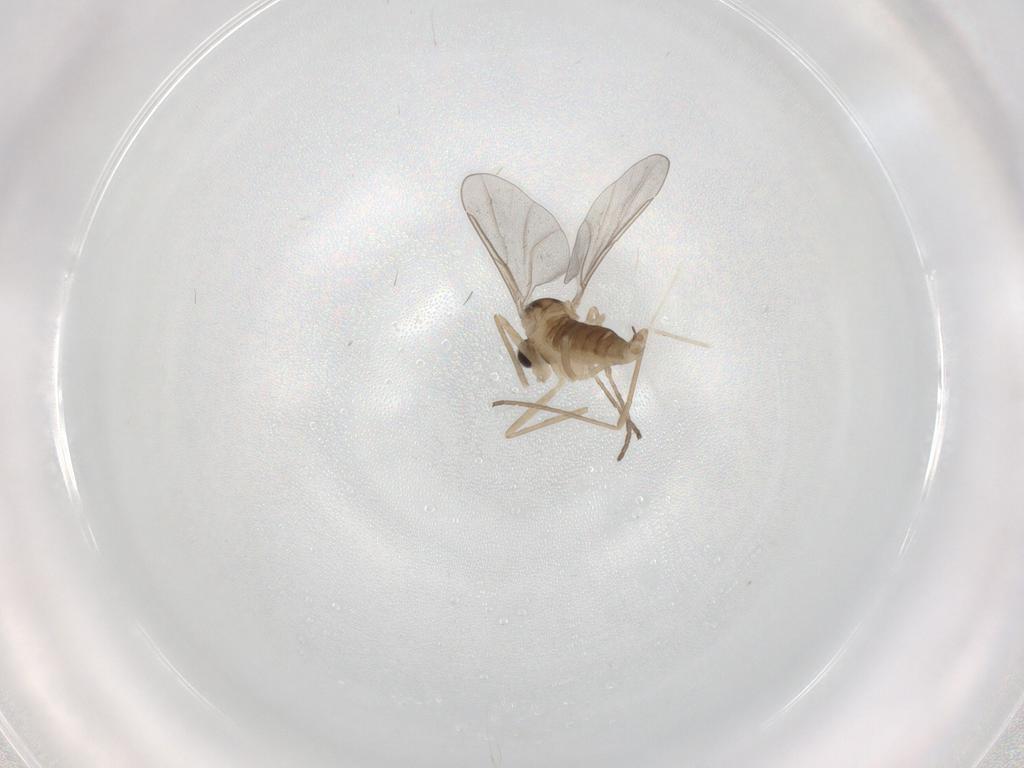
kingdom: Animalia
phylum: Arthropoda
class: Insecta
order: Diptera
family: Cecidomyiidae
